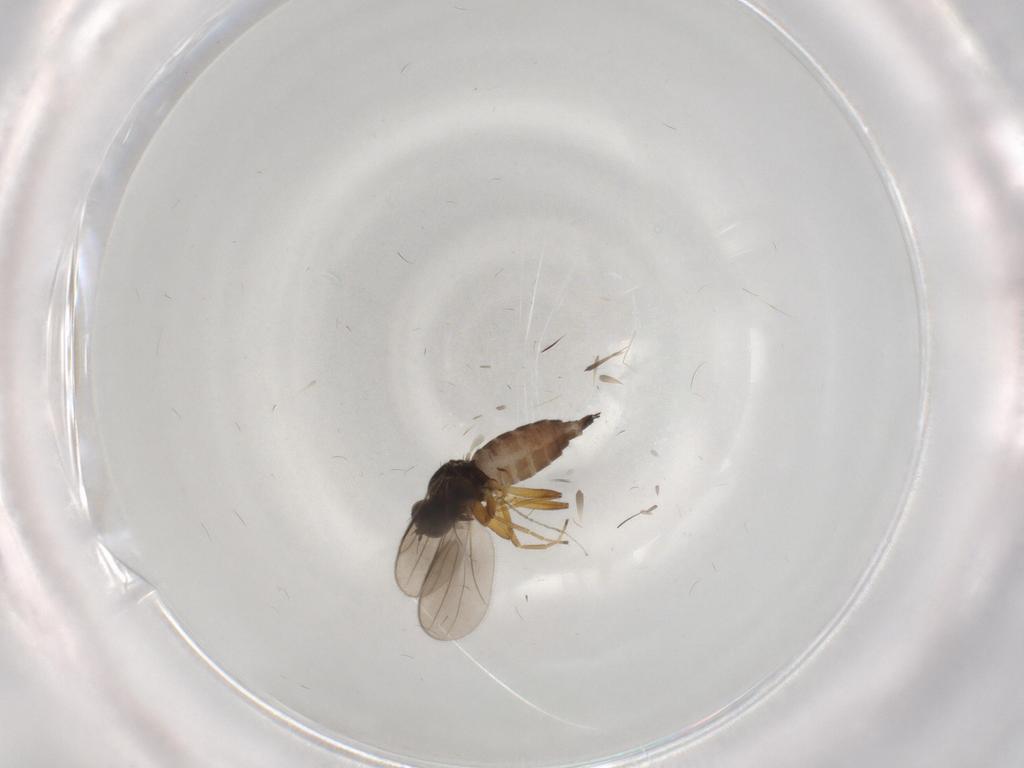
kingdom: Animalia
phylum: Arthropoda
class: Insecta
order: Diptera
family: Hybotidae
